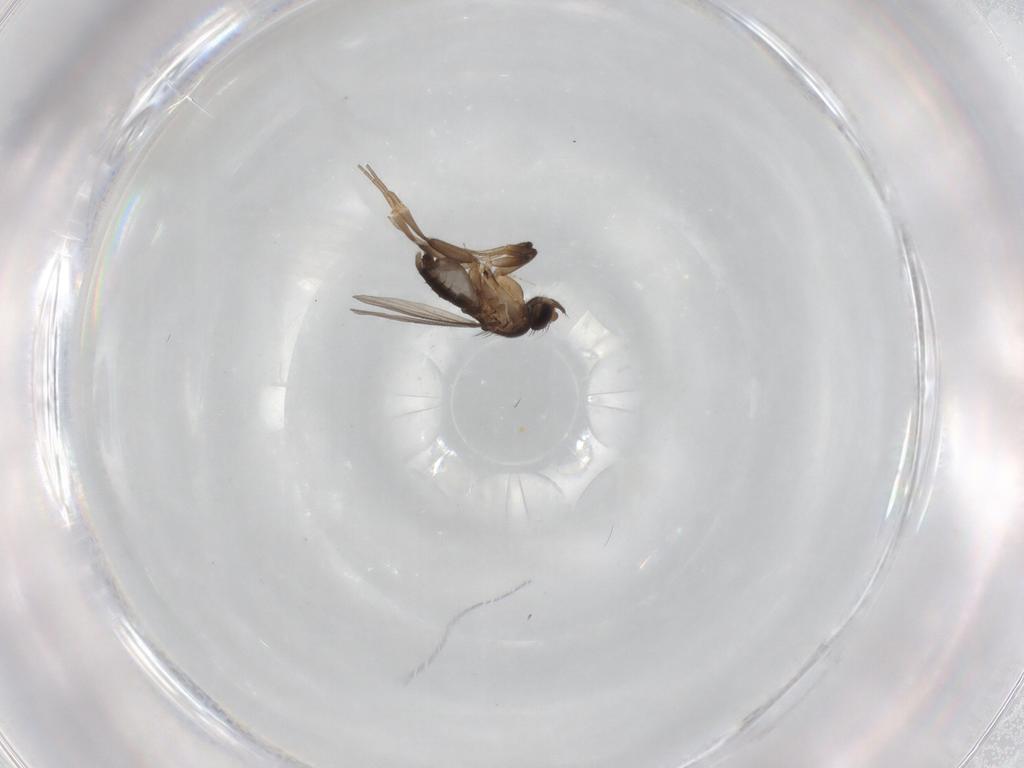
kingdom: Animalia
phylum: Arthropoda
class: Insecta
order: Diptera
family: Phoridae
